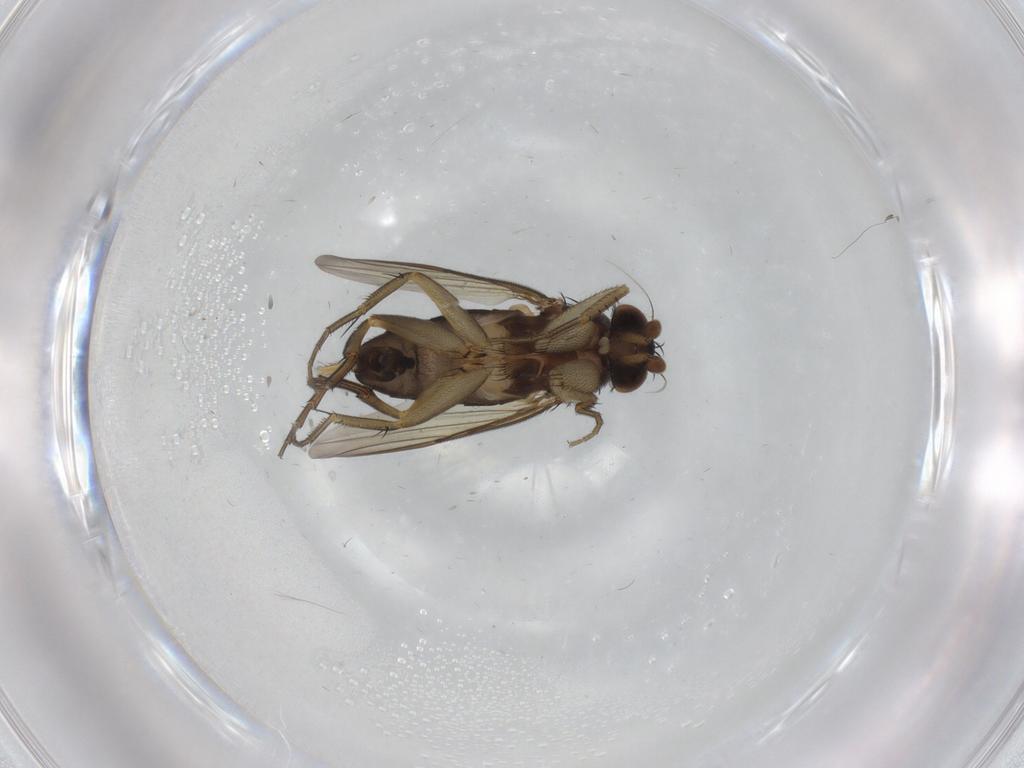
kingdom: Animalia
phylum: Arthropoda
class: Insecta
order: Diptera
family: Phoridae
